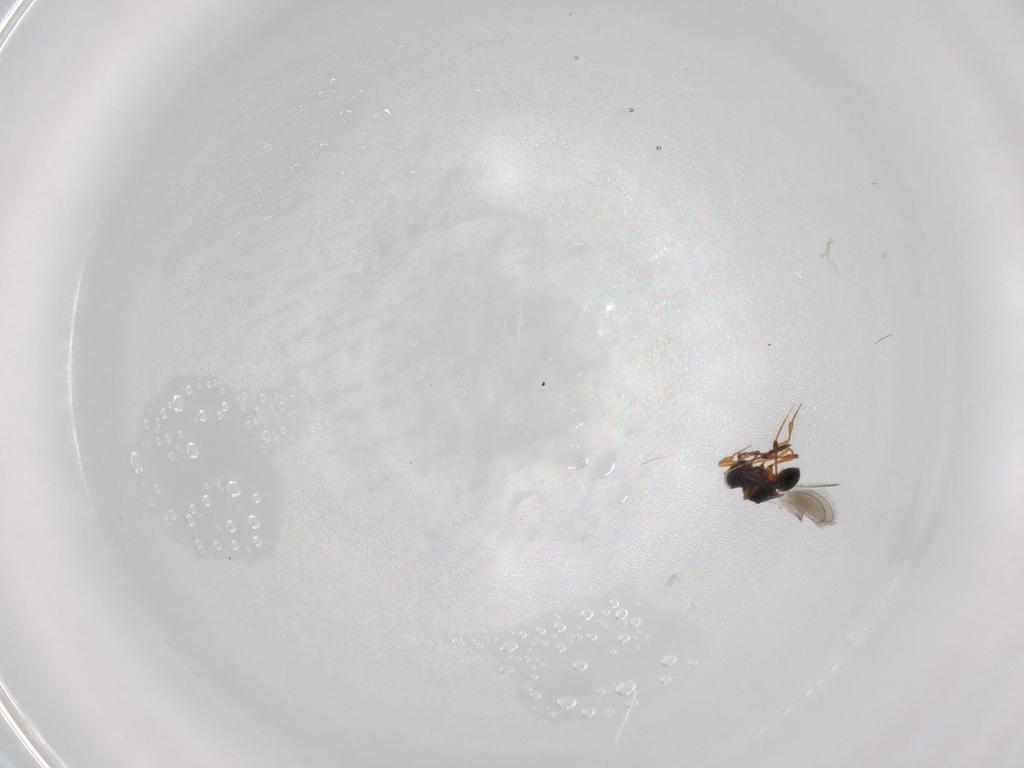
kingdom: Animalia
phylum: Arthropoda
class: Insecta
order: Hymenoptera
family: Platygastridae
